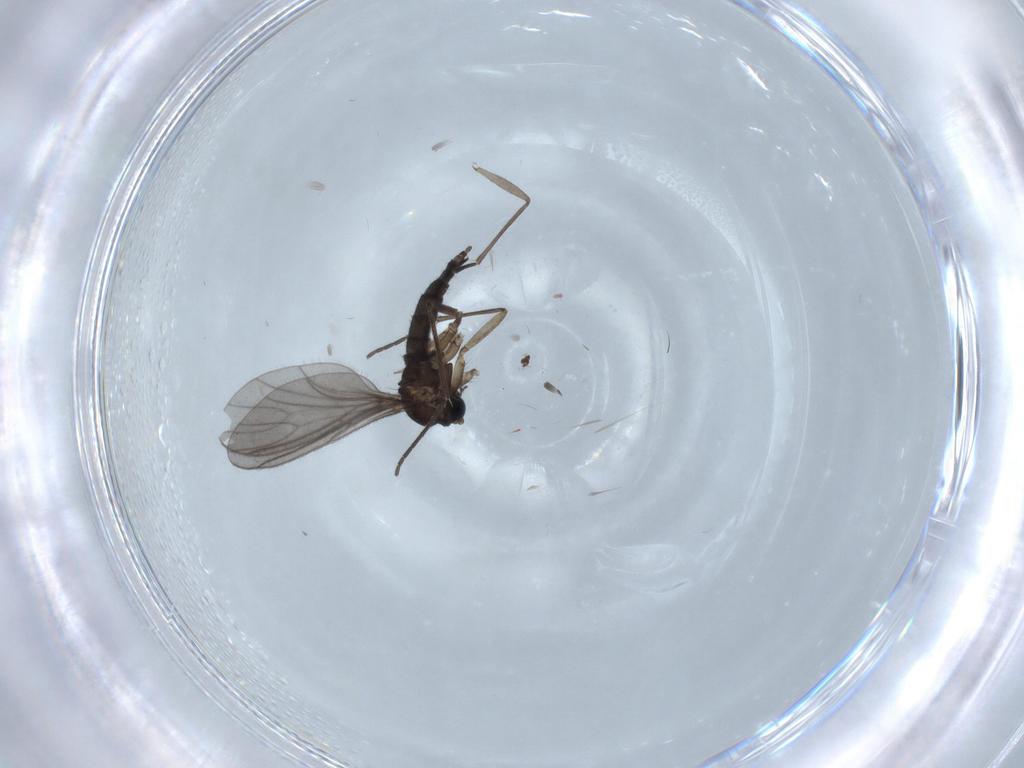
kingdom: Animalia
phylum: Arthropoda
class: Insecta
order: Diptera
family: Sciaridae
